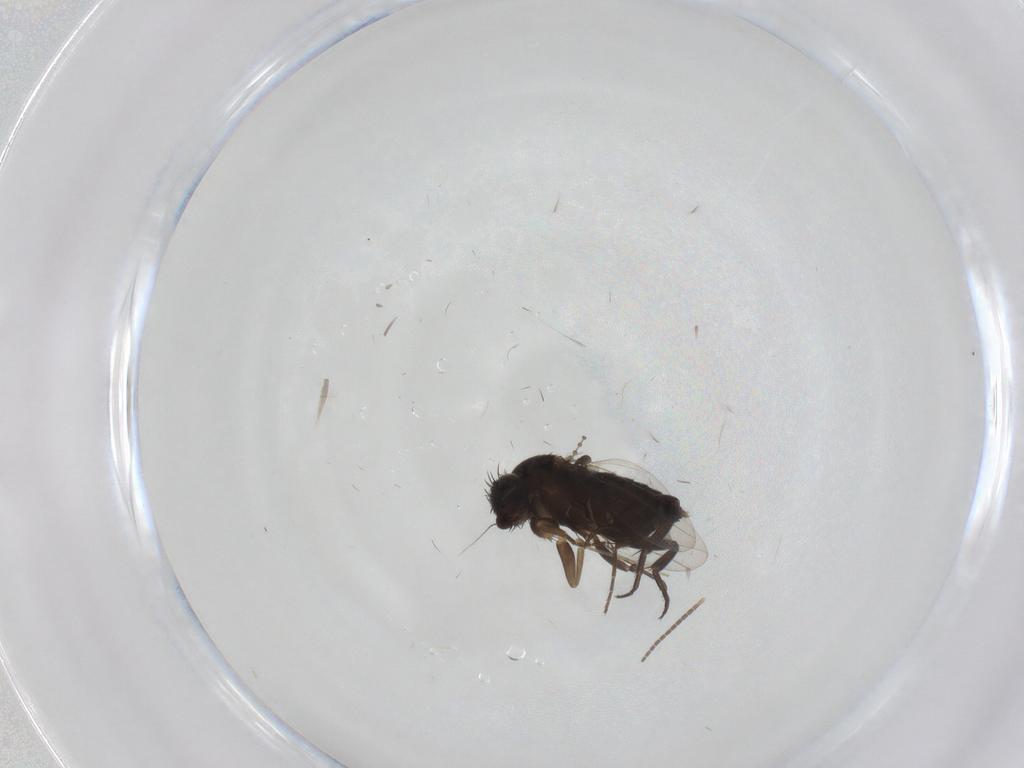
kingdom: Animalia
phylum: Arthropoda
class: Insecta
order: Diptera
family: Phoridae
